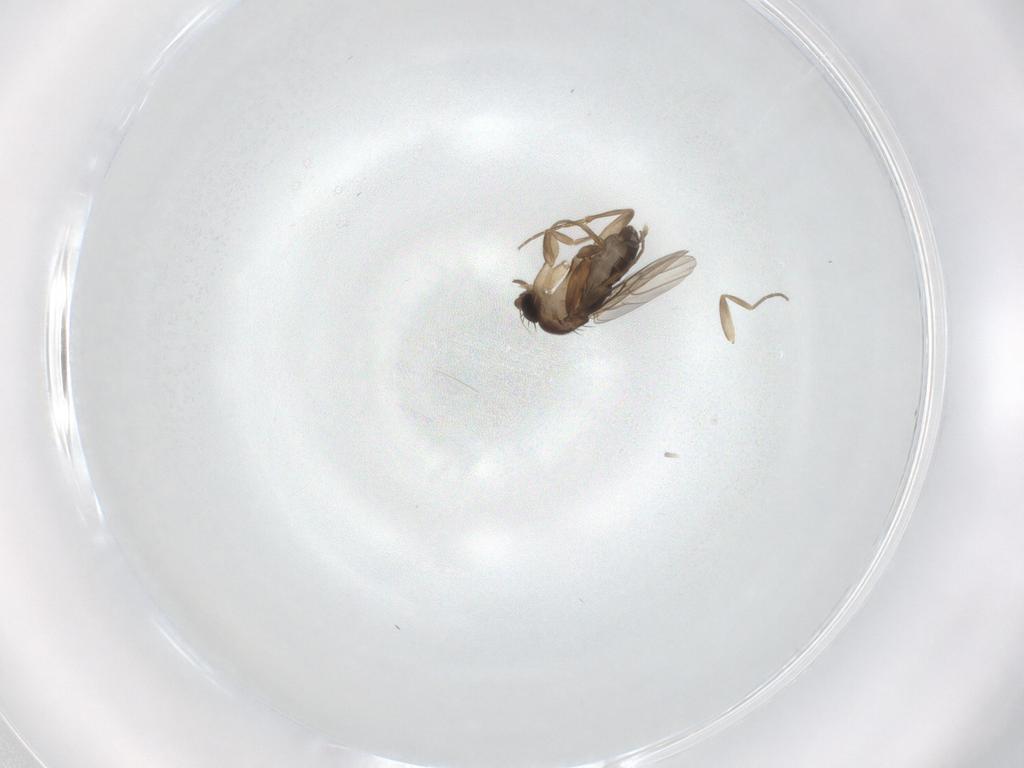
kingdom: Animalia
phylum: Arthropoda
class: Insecta
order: Diptera
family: Phoridae
